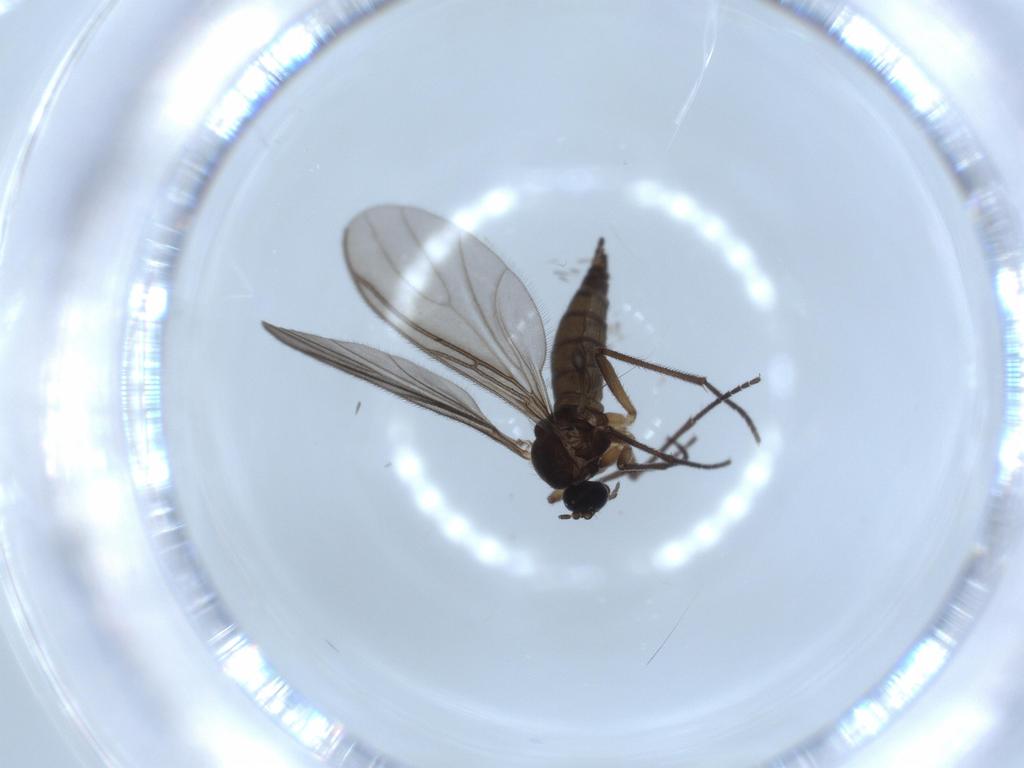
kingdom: Animalia
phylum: Arthropoda
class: Insecta
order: Diptera
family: Sciaridae
